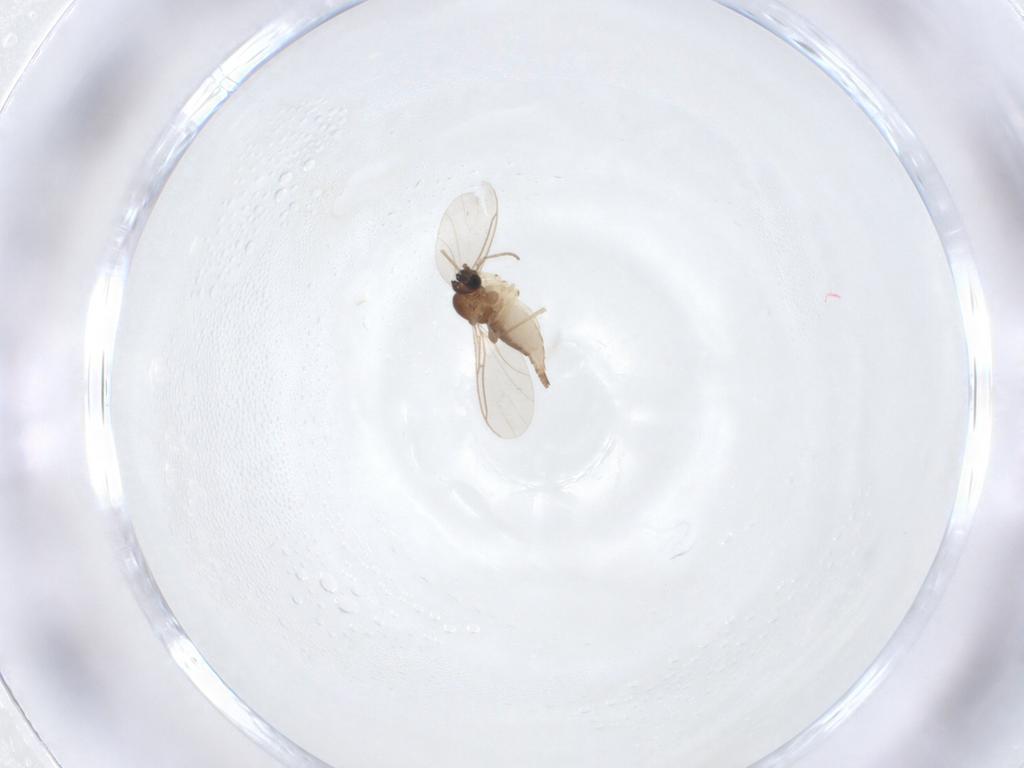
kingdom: Animalia
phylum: Arthropoda
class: Insecta
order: Diptera
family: Sciaridae
